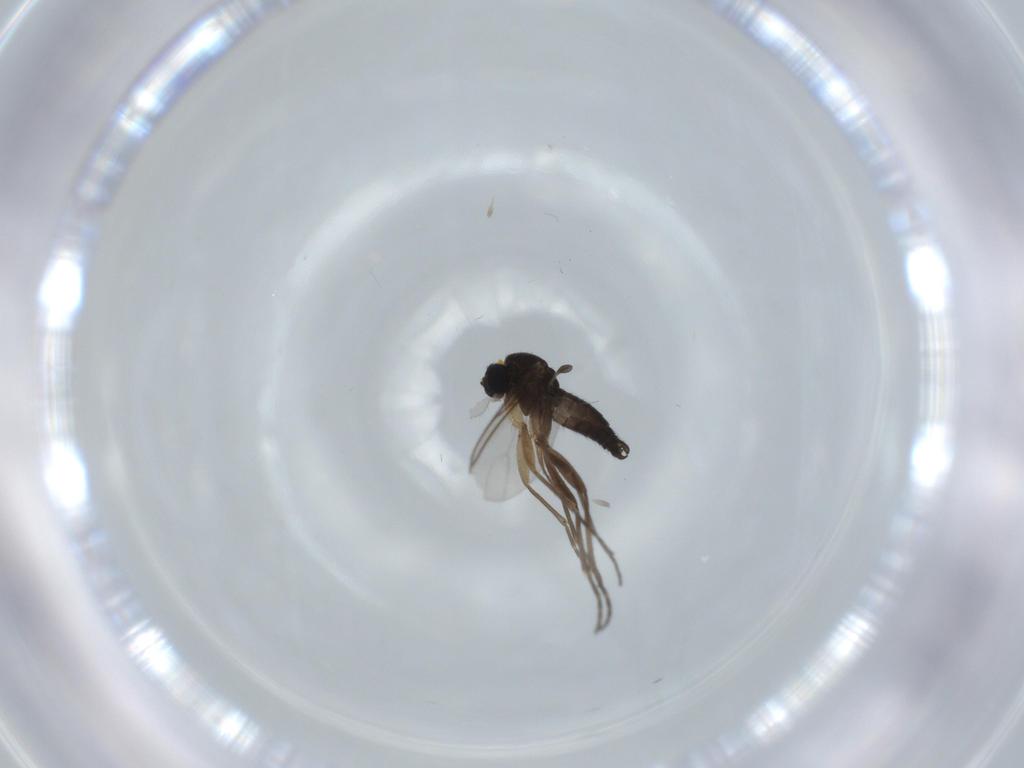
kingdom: Animalia
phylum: Arthropoda
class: Insecta
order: Diptera
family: Sciaridae
